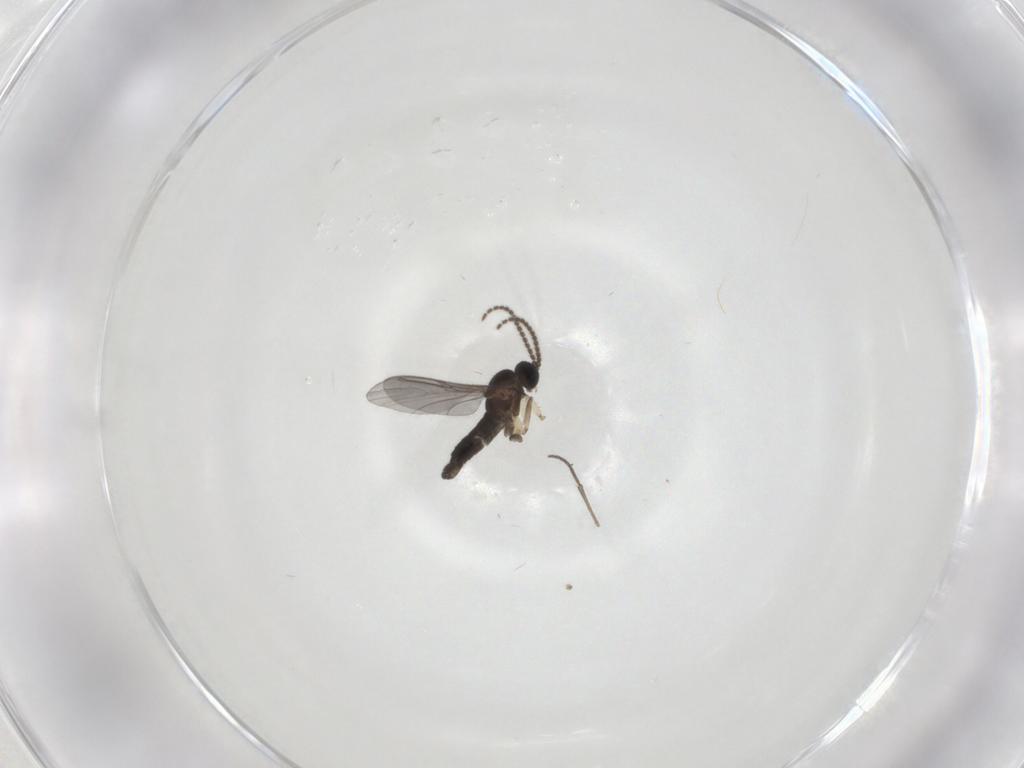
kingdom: Animalia
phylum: Arthropoda
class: Insecta
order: Diptera
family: Sciaridae
